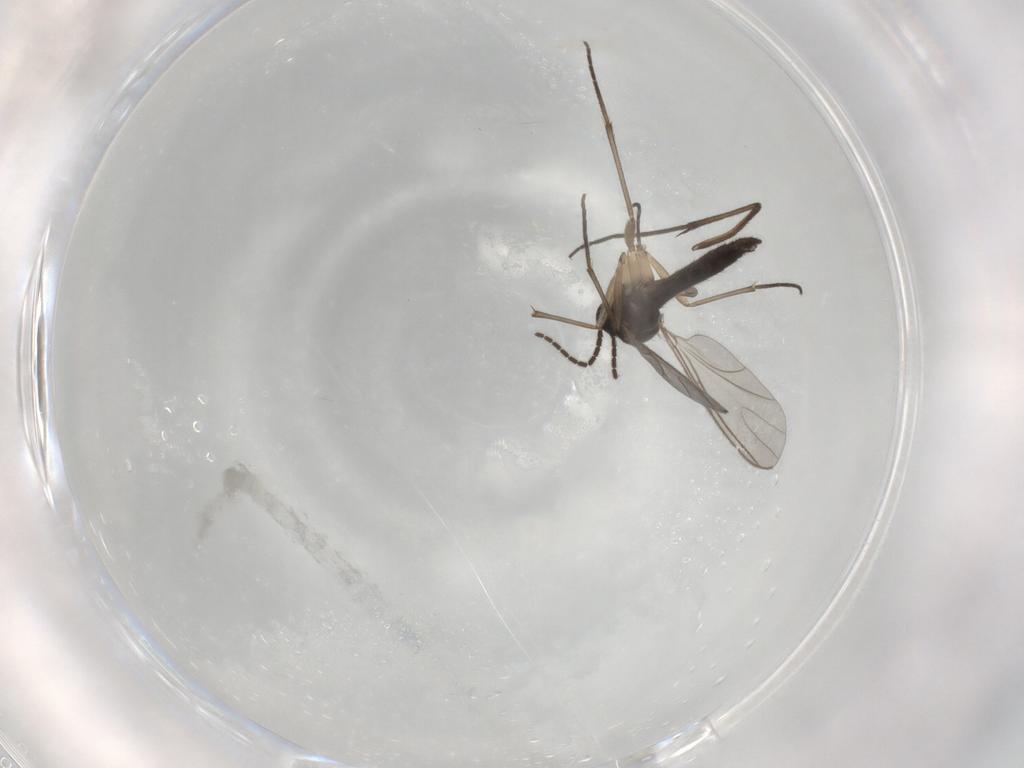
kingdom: Animalia
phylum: Arthropoda
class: Insecta
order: Diptera
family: Sciaridae
